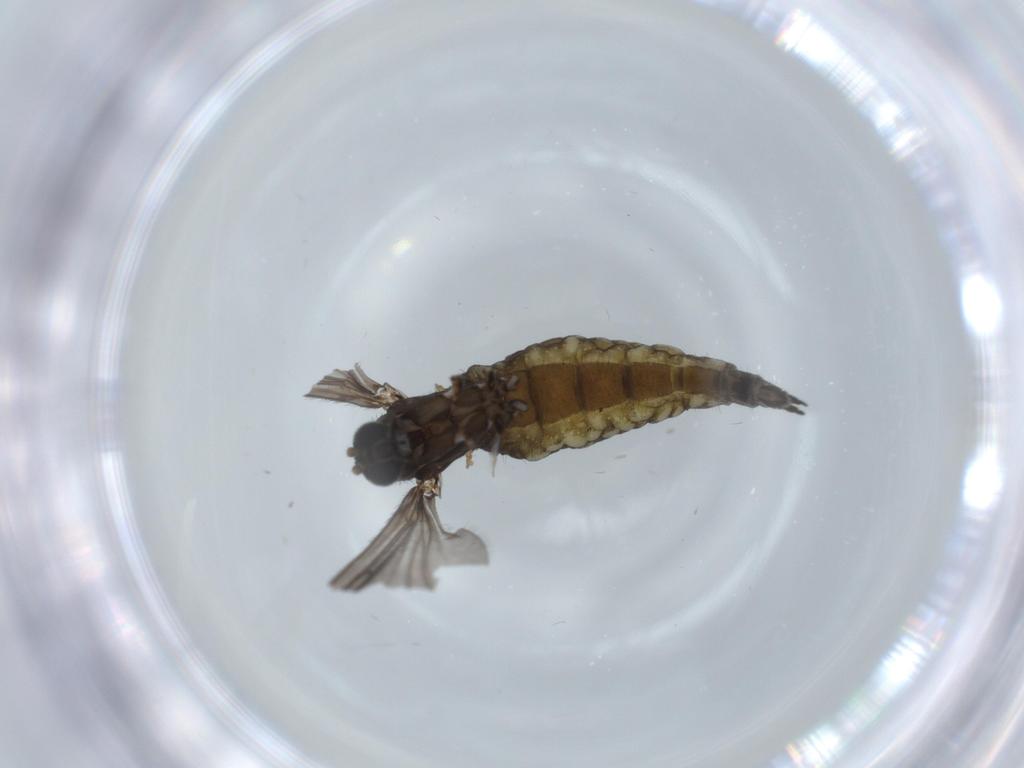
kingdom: Animalia
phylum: Arthropoda
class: Insecta
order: Diptera
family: Sciaridae
